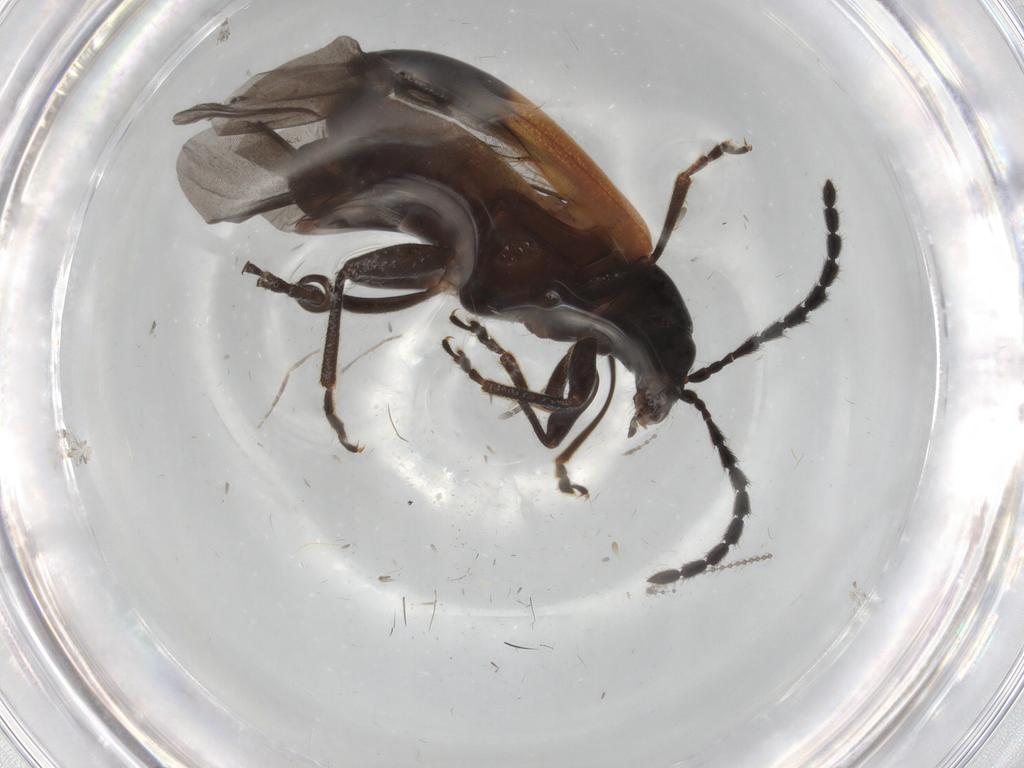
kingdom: Animalia
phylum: Arthropoda
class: Insecta
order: Coleoptera
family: Chrysomelidae
